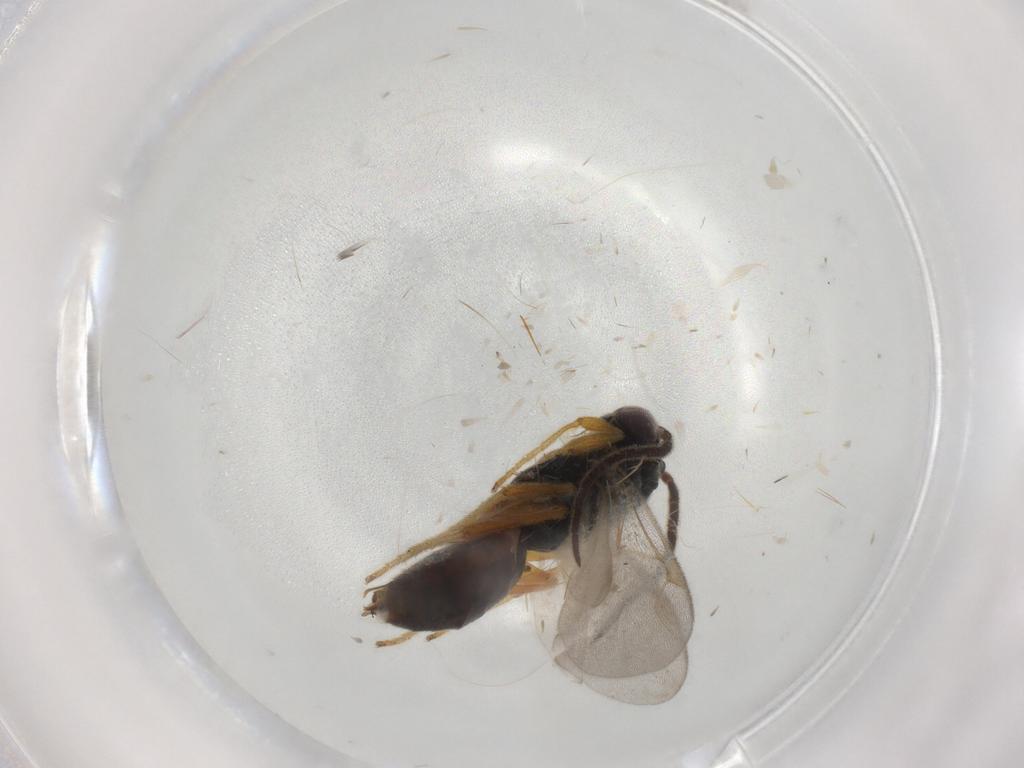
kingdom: Animalia
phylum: Arthropoda
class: Insecta
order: Hymenoptera
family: Dryinidae
